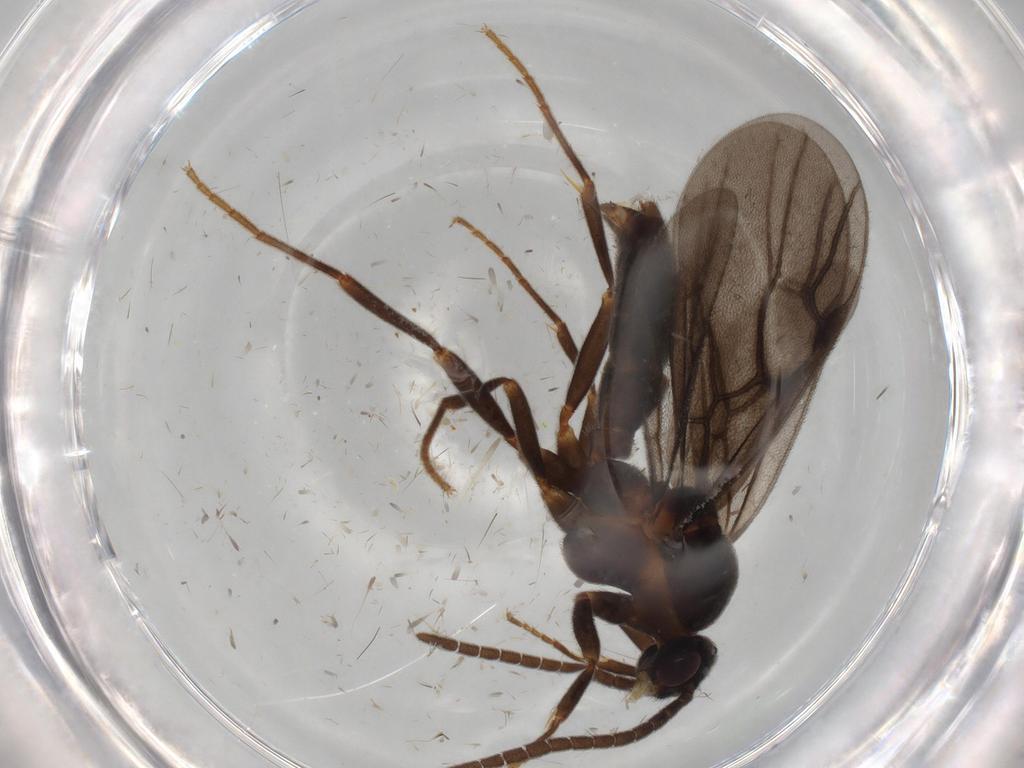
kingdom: Animalia
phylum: Arthropoda
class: Insecta
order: Hymenoptera
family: Formicidae
